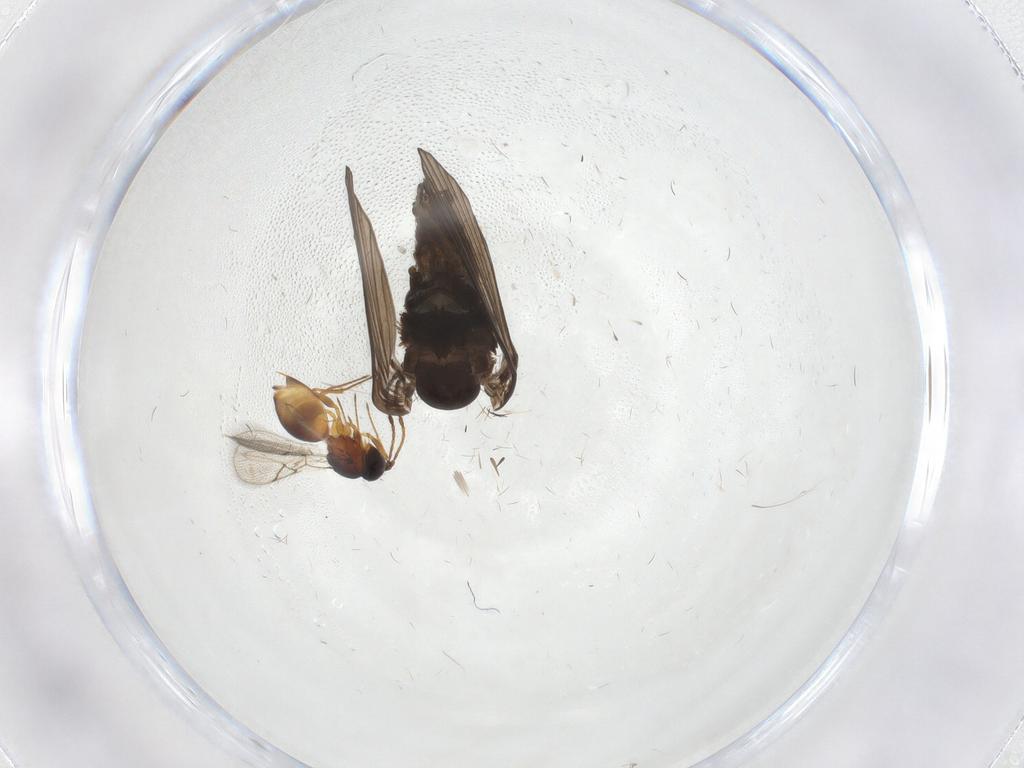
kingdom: Animalia
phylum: Arthropoda
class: Insecta
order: Diptera
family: Psychodidae
